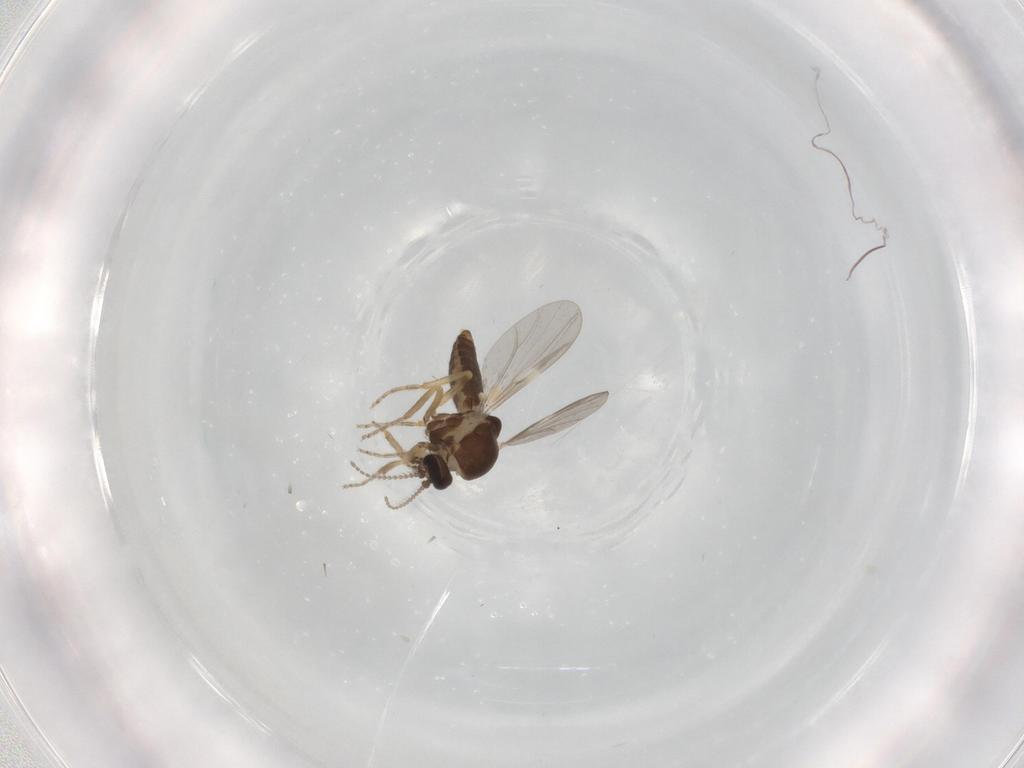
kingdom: Animalia
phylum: Arthropoda
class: Insecta
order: Diptera
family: Ceratopogonidae
